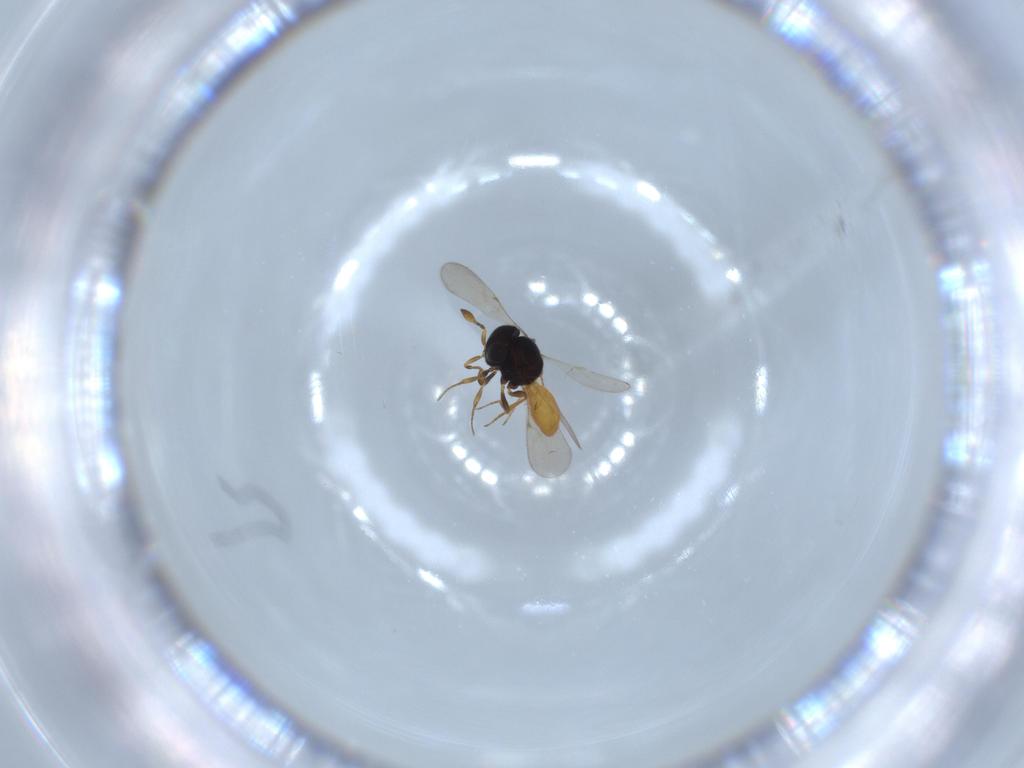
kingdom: Animalia
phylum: Arthropoda
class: Insecta
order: Hymenoptera
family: Scelionidae
